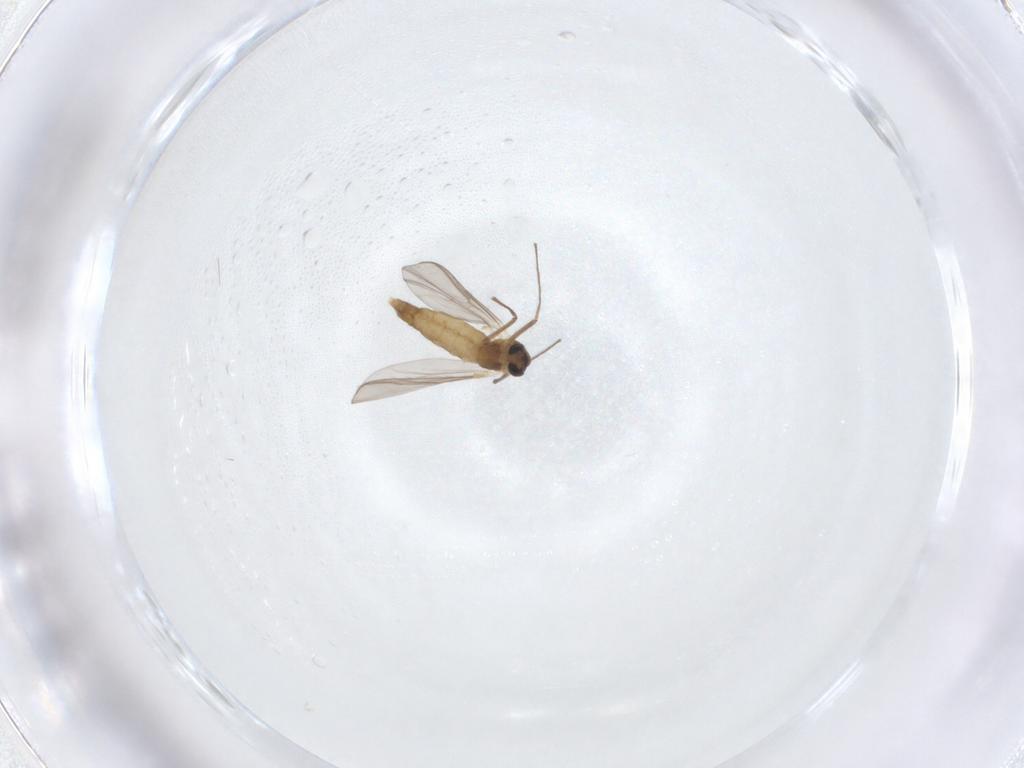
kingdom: Animalia
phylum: Arthropoda
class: Insecta
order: Diptera
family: Chironomidae
